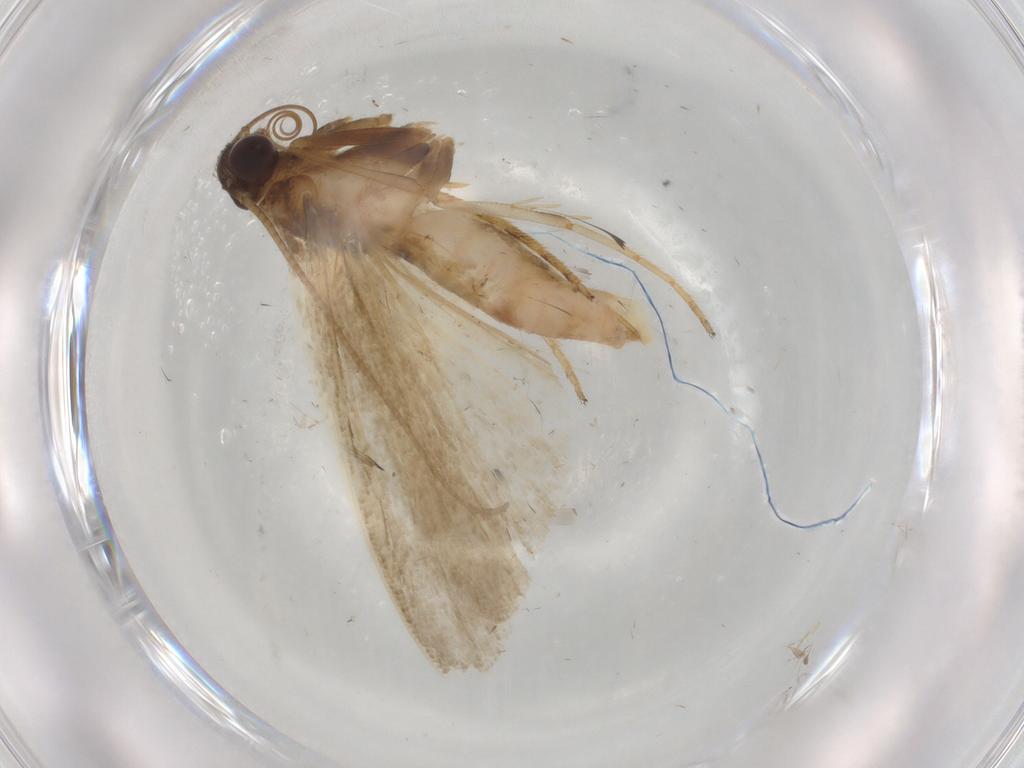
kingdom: Animalia
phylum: Arthropoda
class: Insecta
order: Lepidoptera
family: Noctuidae
